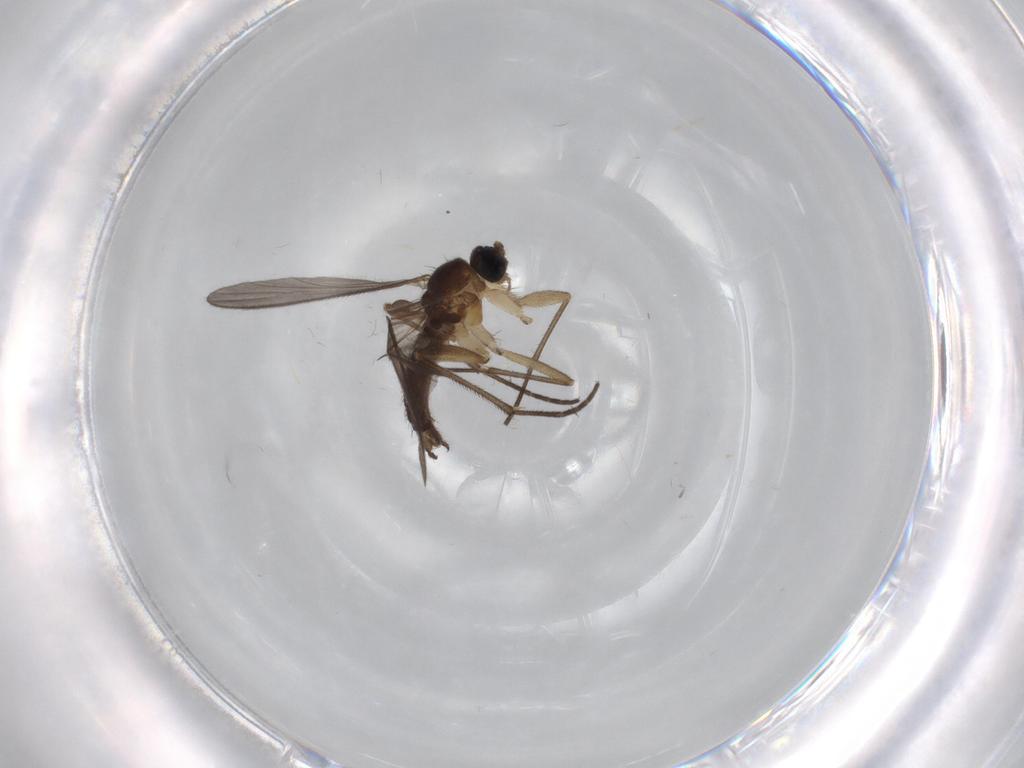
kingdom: Animalia
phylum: Arthropoda
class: Insecta
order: Diptera
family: Sciaridae
